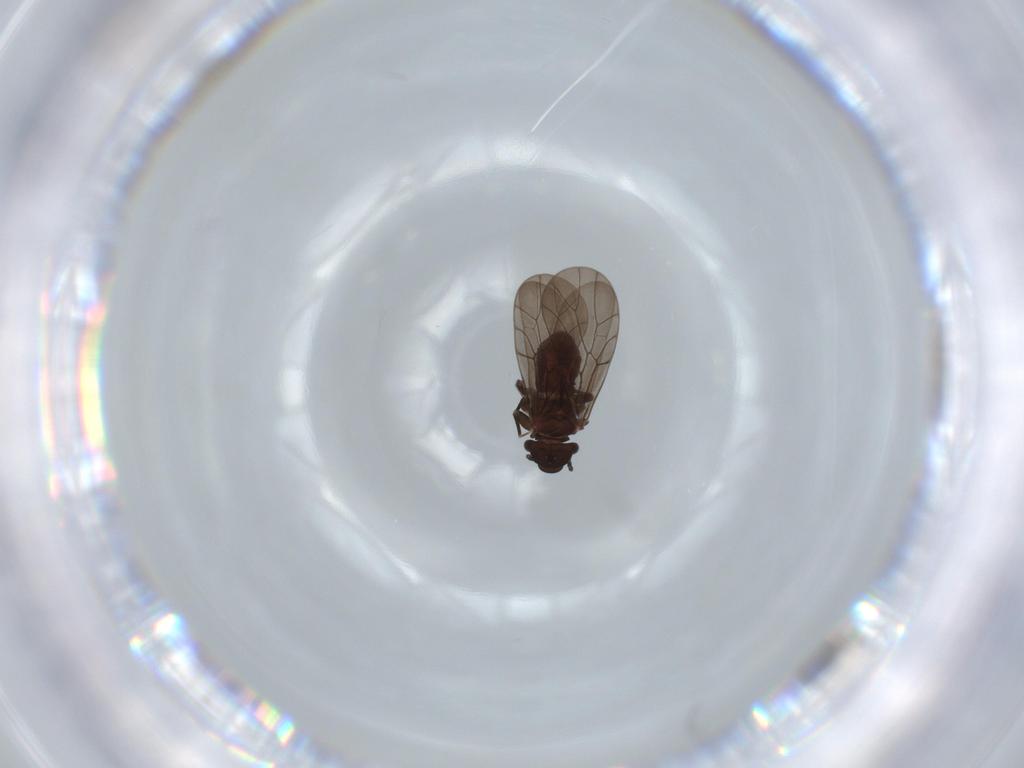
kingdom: Animalia
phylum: Arthropoda
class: Insecta
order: Psocodea
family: Lepidopsocidae
